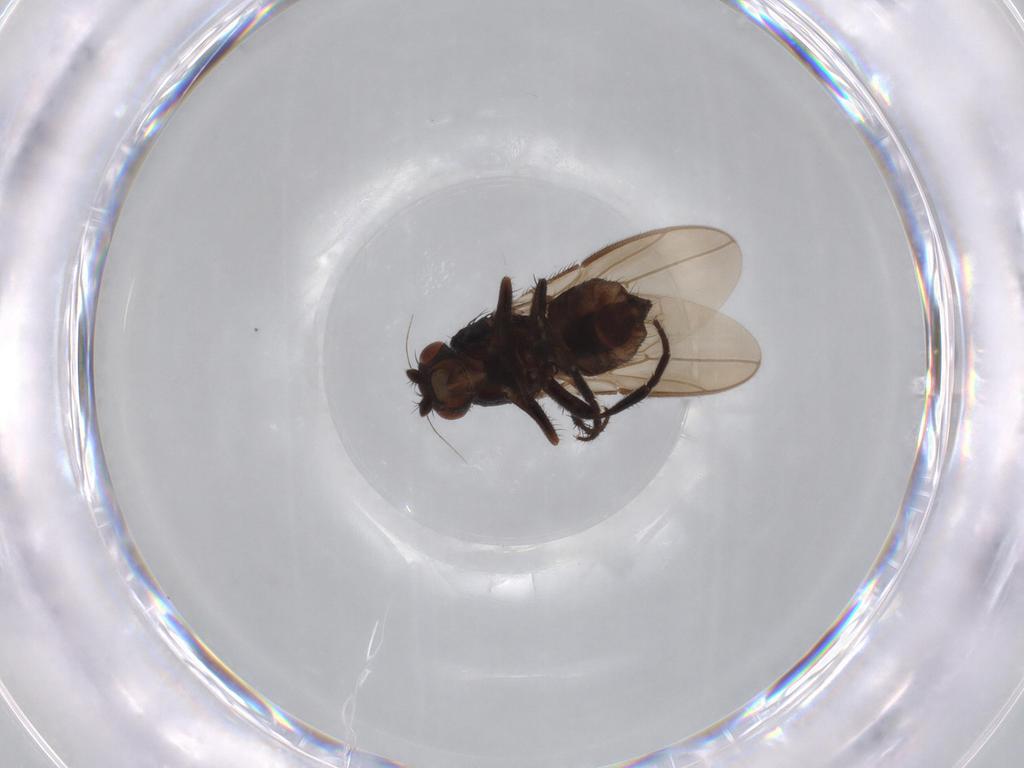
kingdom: Animalia
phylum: Arthropoda
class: Insecta
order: Diptera
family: Sphaeroceridae
